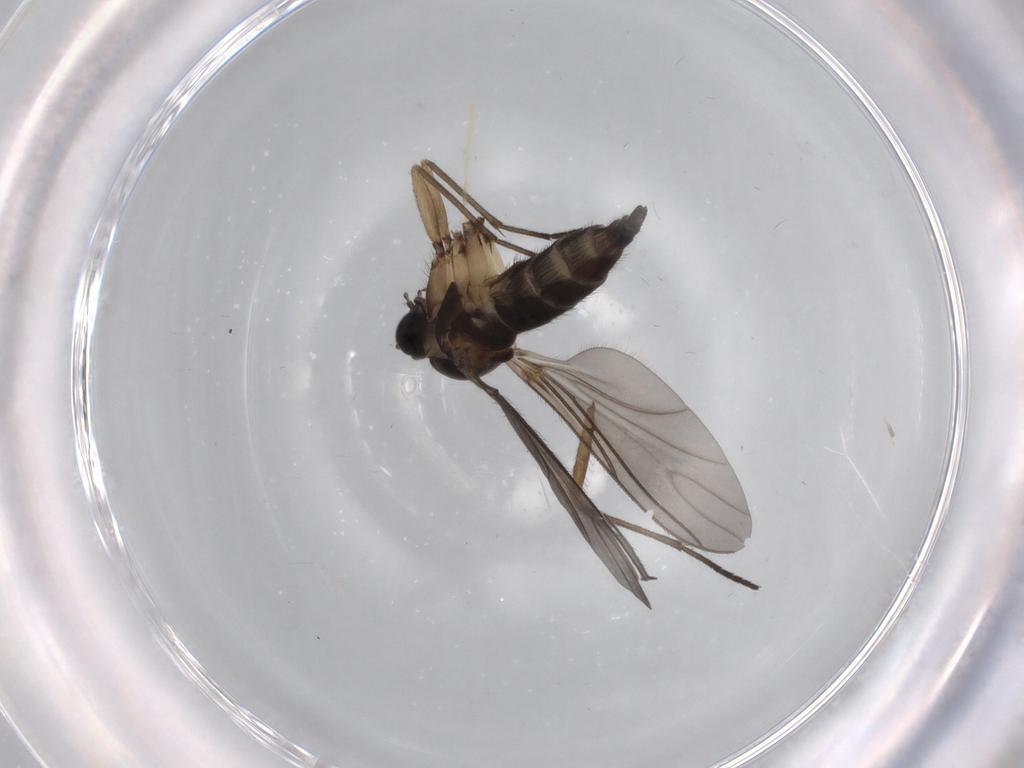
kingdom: Animalia
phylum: Arthropoda
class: Insecta
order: Diptera
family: Sciaridae
